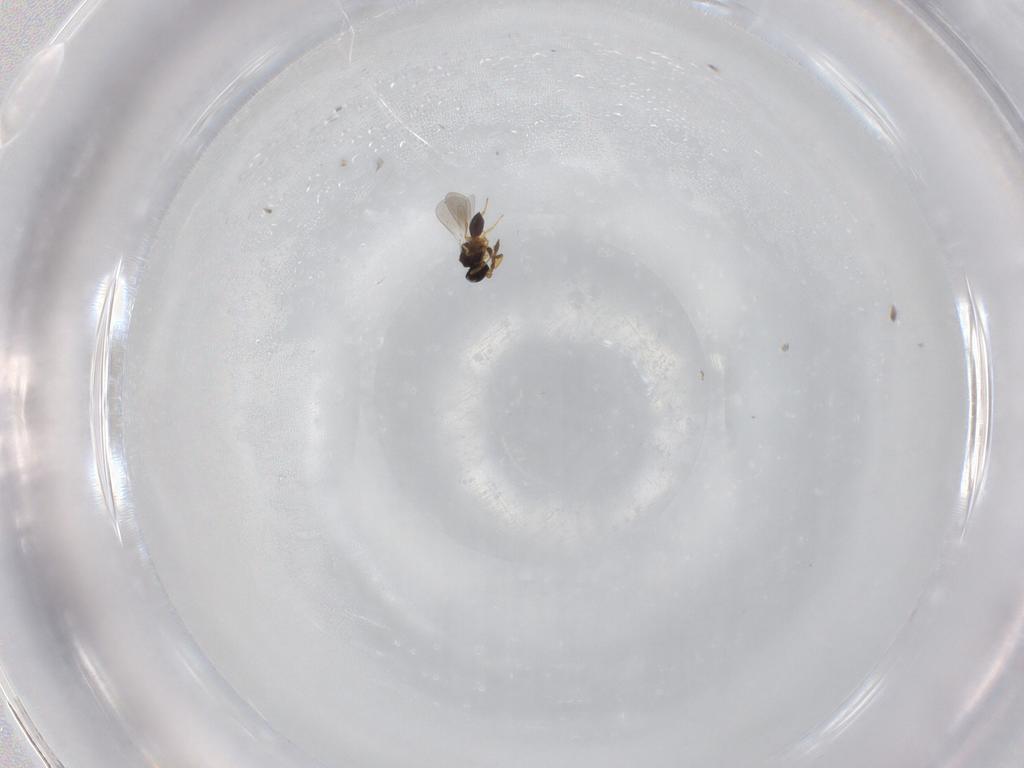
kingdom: Animalia
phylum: Arthropoda
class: Insecta
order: Hymenoptera
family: Platygastridae
